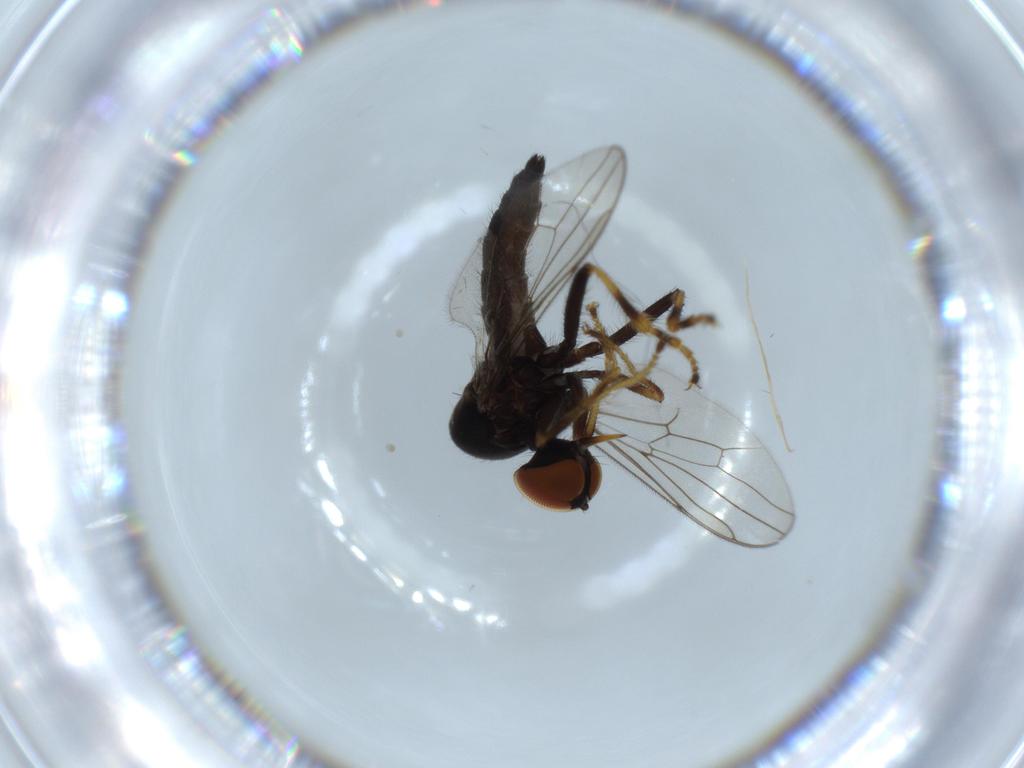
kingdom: Animalia
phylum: Arthropoda
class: Insecta
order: Diptera
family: Hybotidae
